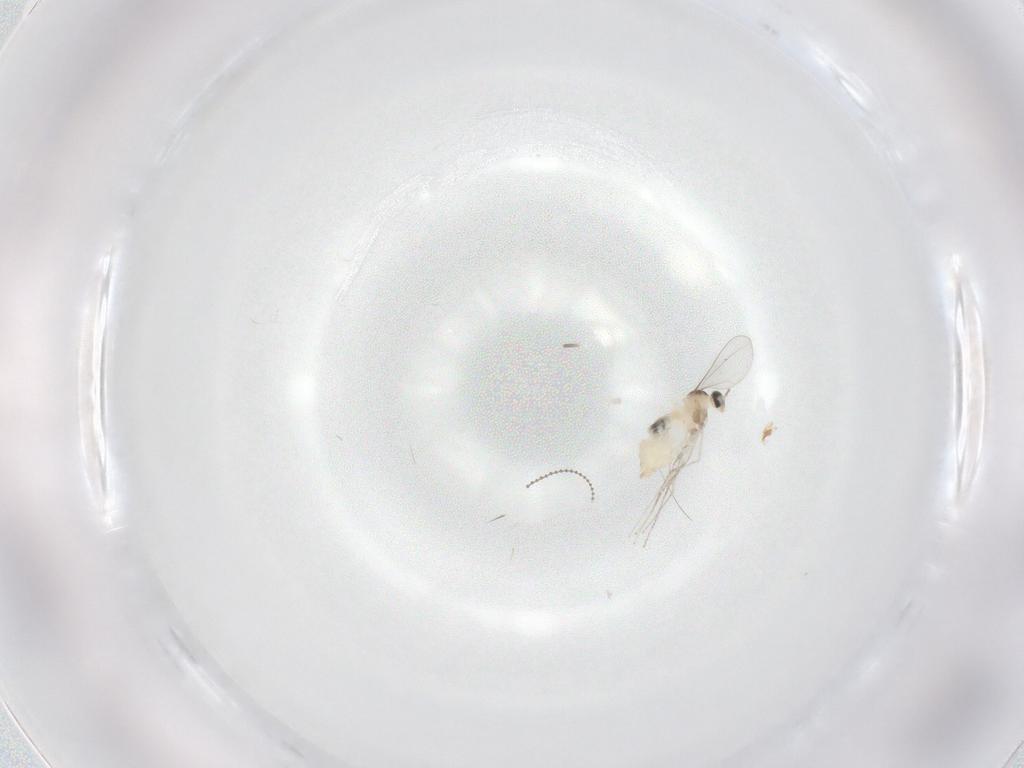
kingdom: Animalia
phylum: Arthropoda
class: Insecta
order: Diptera
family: Cecidomyiidae
